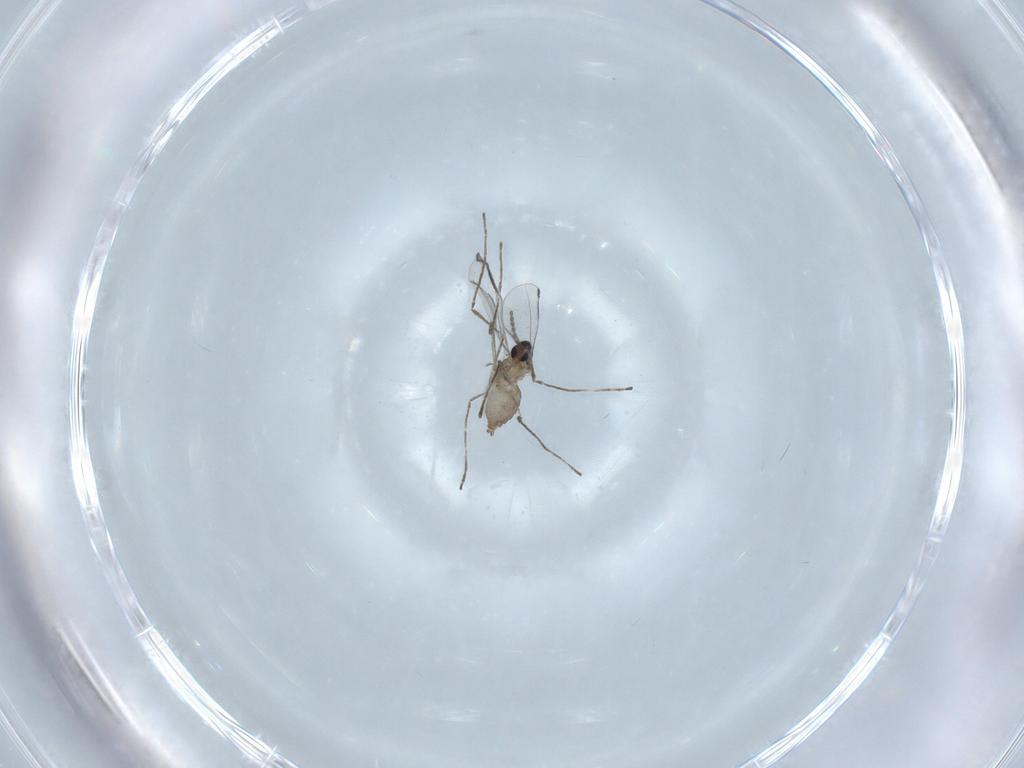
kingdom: Animalia
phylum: Arthropoda
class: Insecta
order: Diptera
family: Cecidomyiidae
